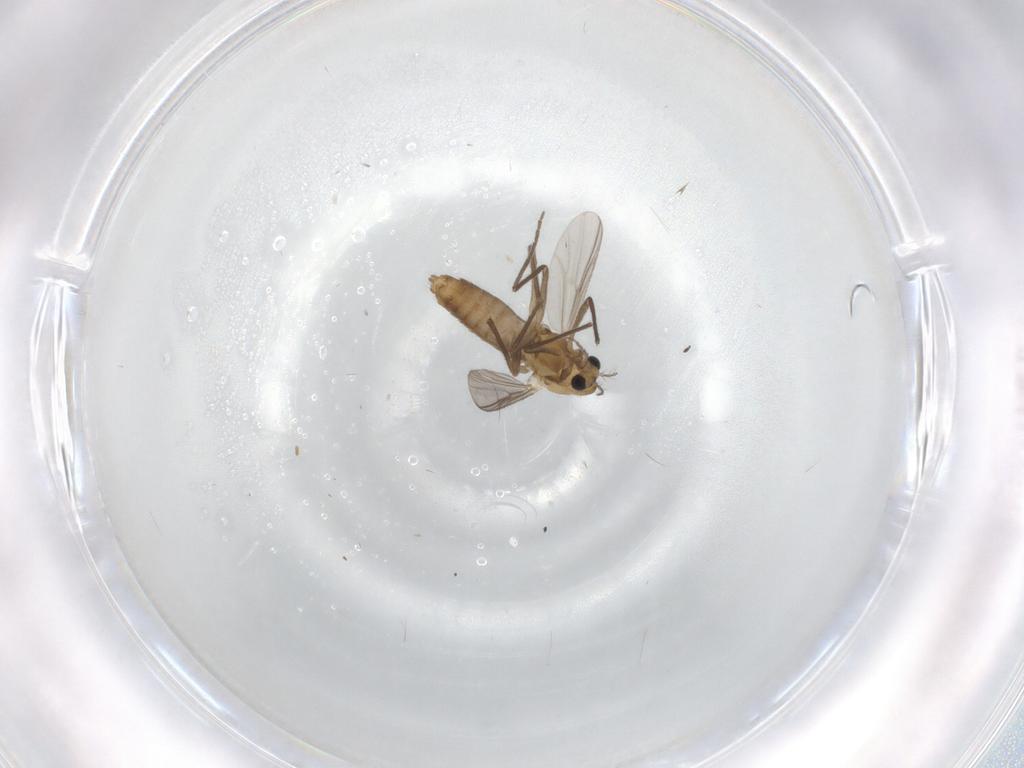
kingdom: Animalia
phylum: Arthropoda
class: Insecta
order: Diptera
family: Chironomidae
